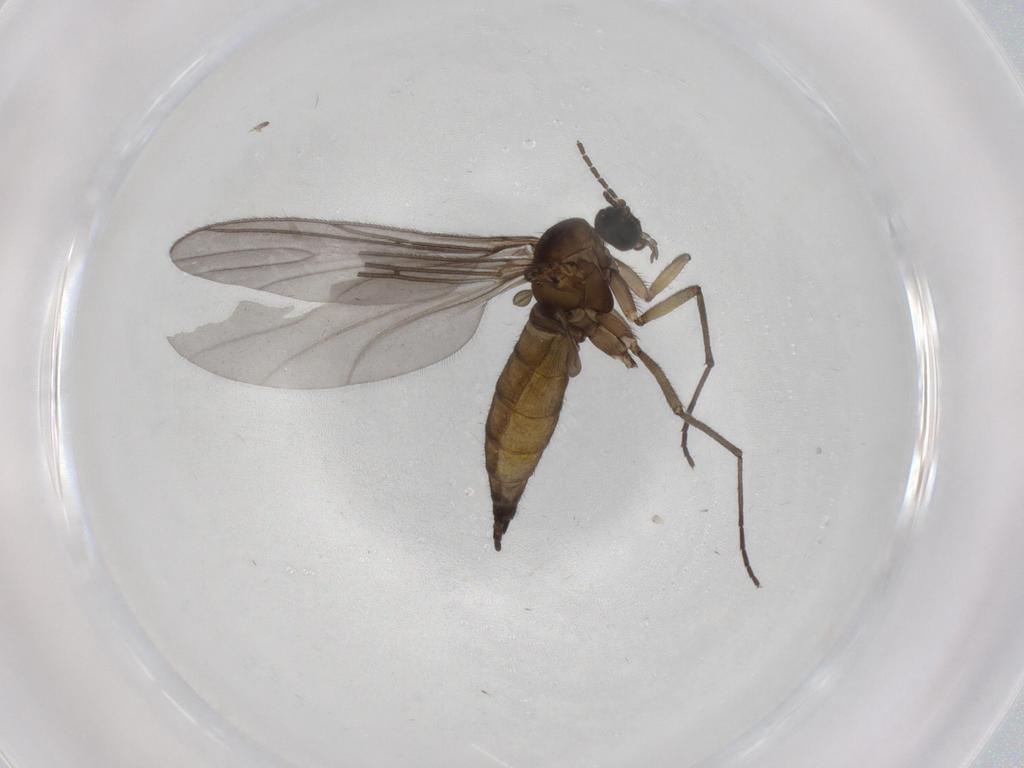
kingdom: Animalia
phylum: Arthropoda
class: Insecta
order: Diptera
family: Sciaridae
